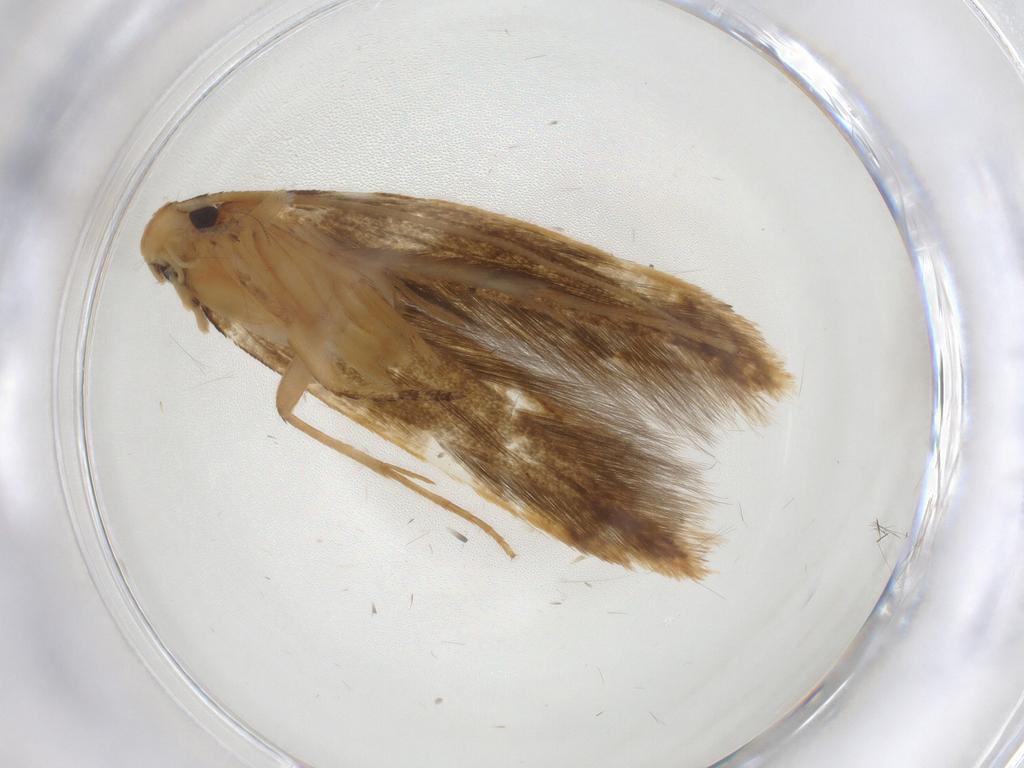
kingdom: Animalia
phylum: Arthropoda
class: Insecta
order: Lepidoptera
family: Tineidae
